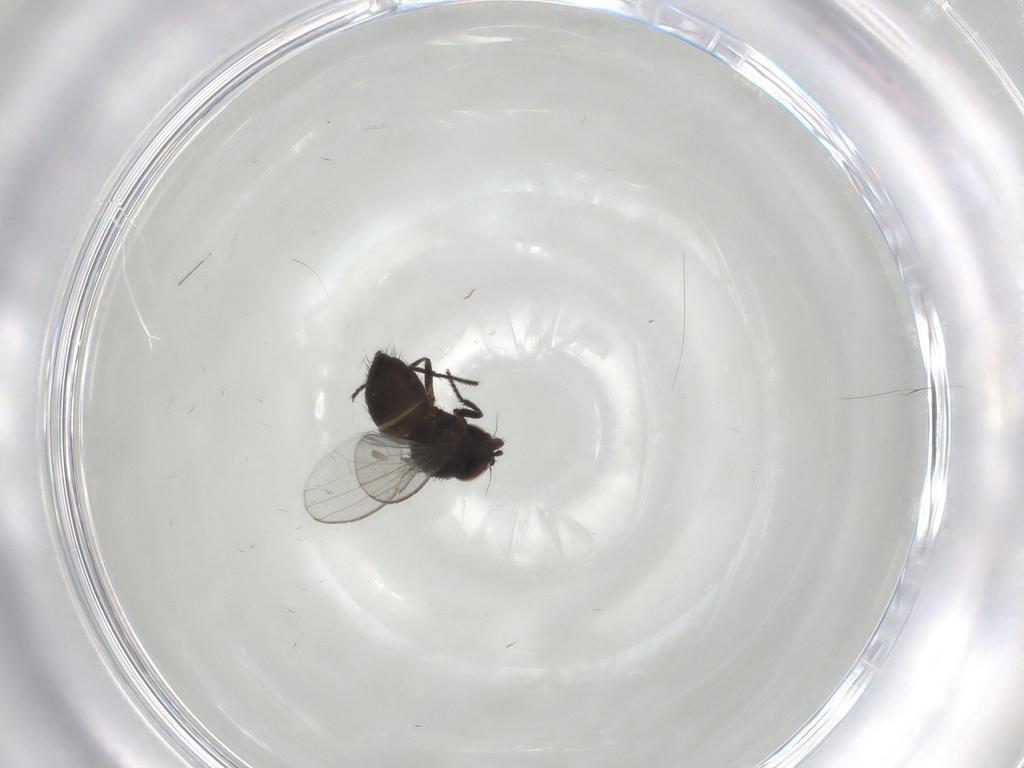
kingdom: Animalia
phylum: Arthropoda
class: Insecta
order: Diptera
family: Milichiidae
